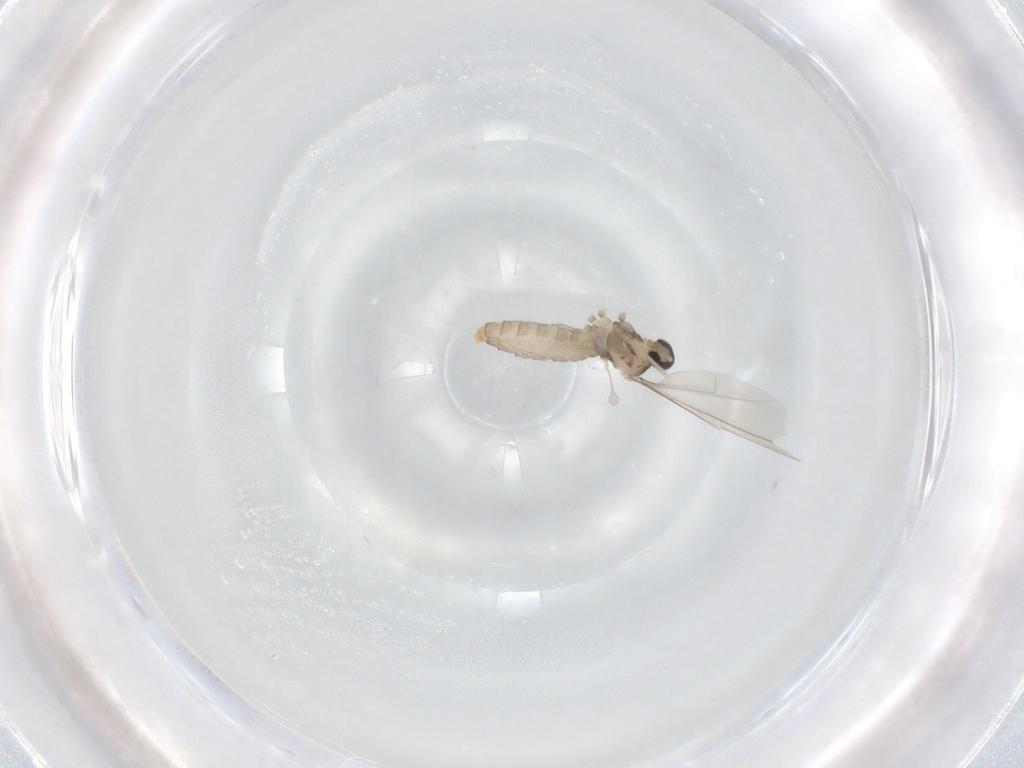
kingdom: Animalia
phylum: Arthropoda
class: Insecta
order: Diptera
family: Cecidomyiidae
